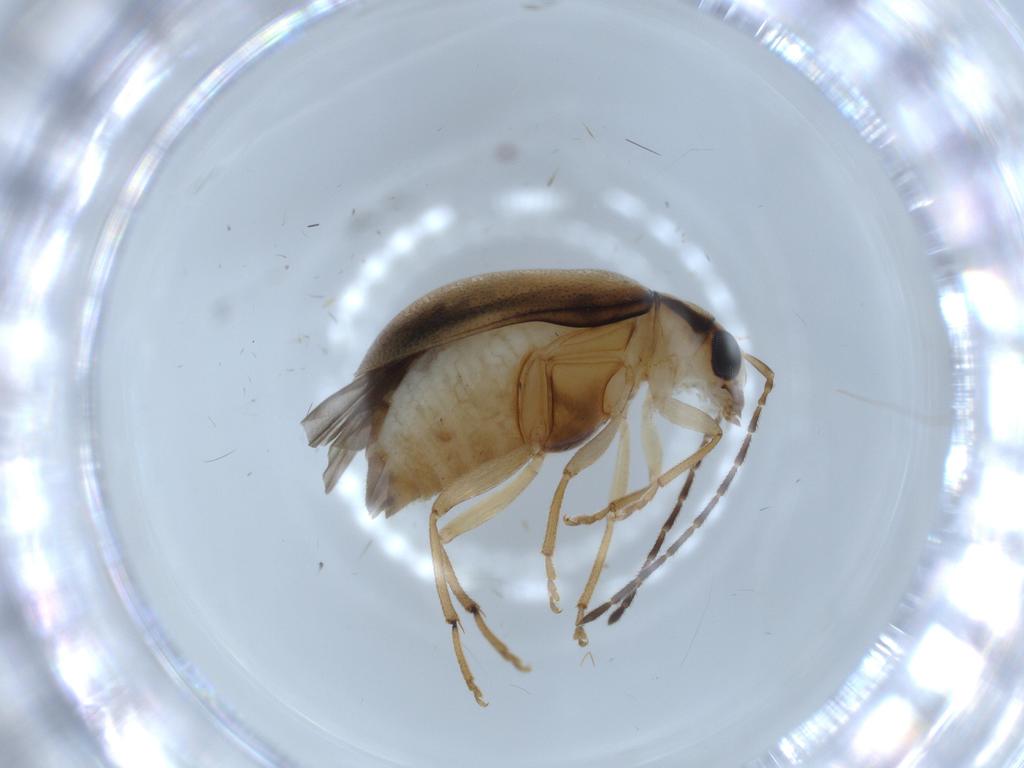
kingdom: Animalia
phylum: Arthropoda
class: Insecta
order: Coleoptera
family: Chrysomelidae
